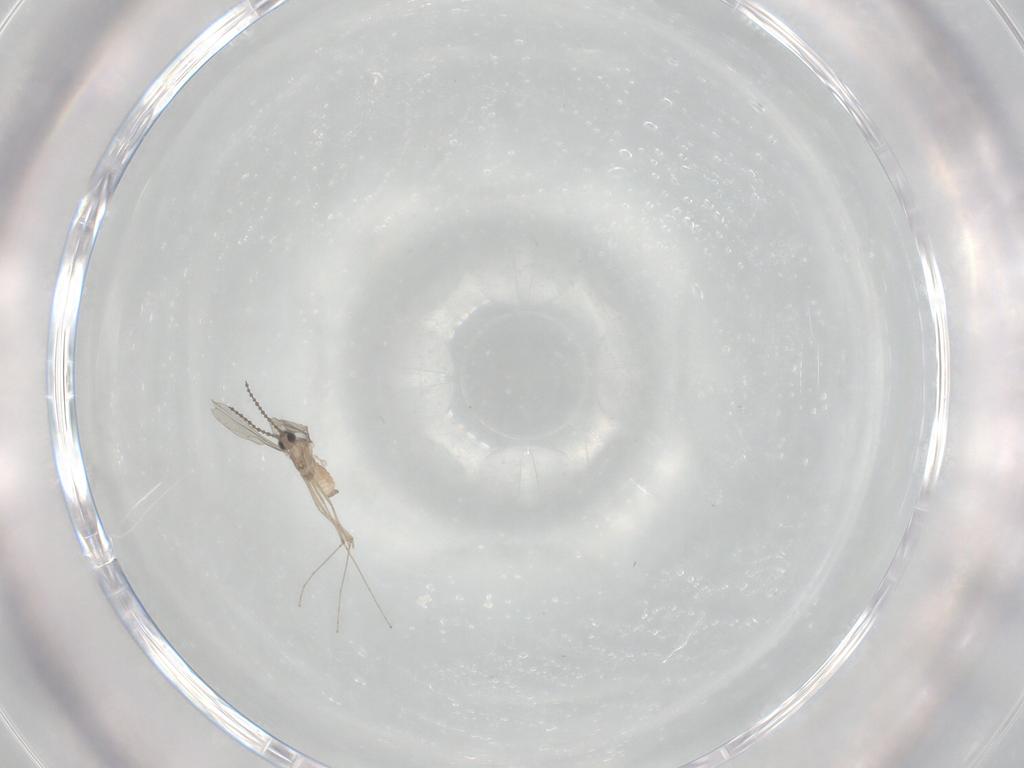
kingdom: Animalia
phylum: Arthropoda
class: Insecta
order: Diptera
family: Cecidomyiidae
